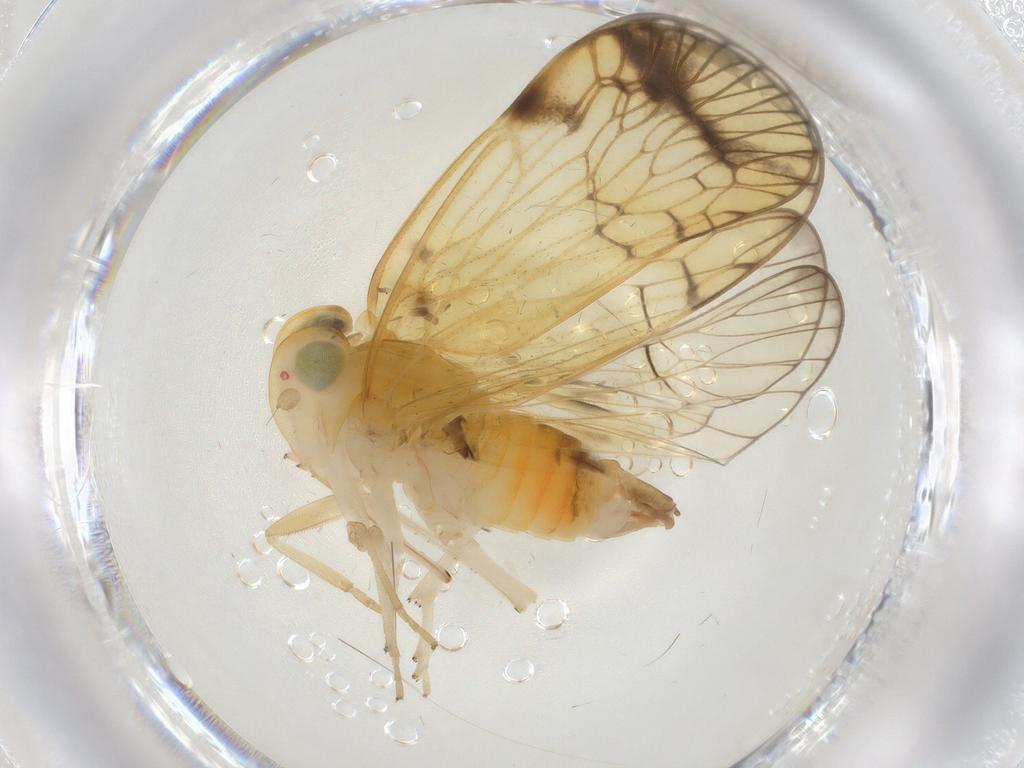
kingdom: Animalia
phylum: Arthropoda
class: Insecta
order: Hemiptera
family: Cixiidae
